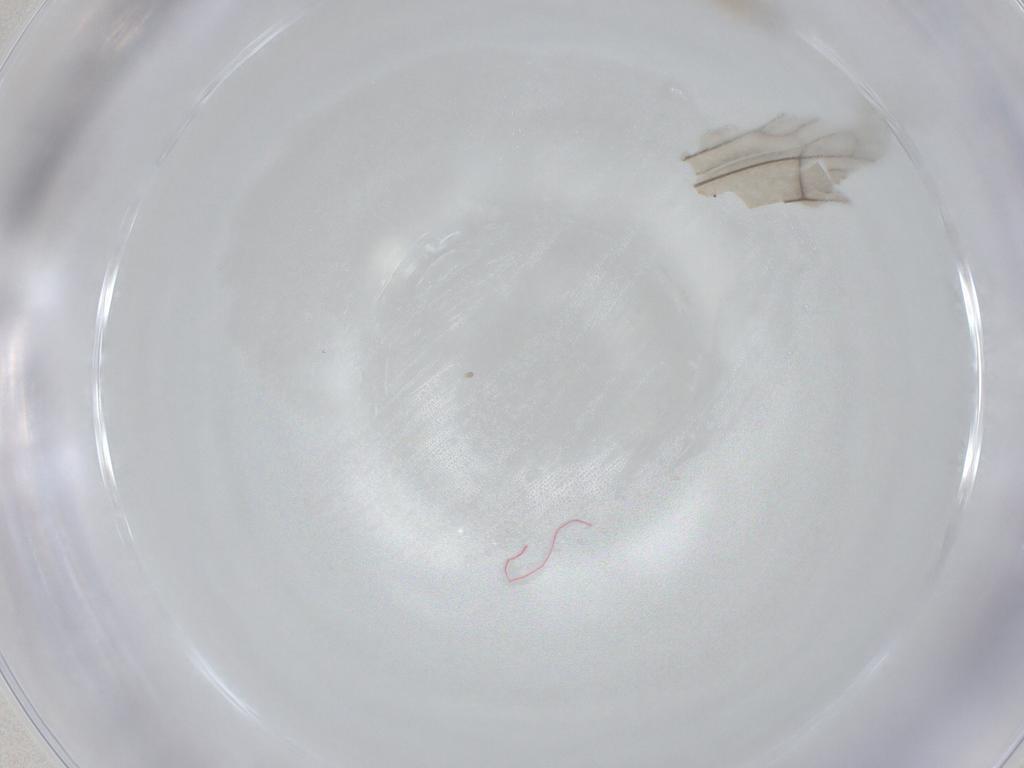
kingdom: Animalia
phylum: Arthropoda
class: Insecta
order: Diptera
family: Cecidomyiidae
